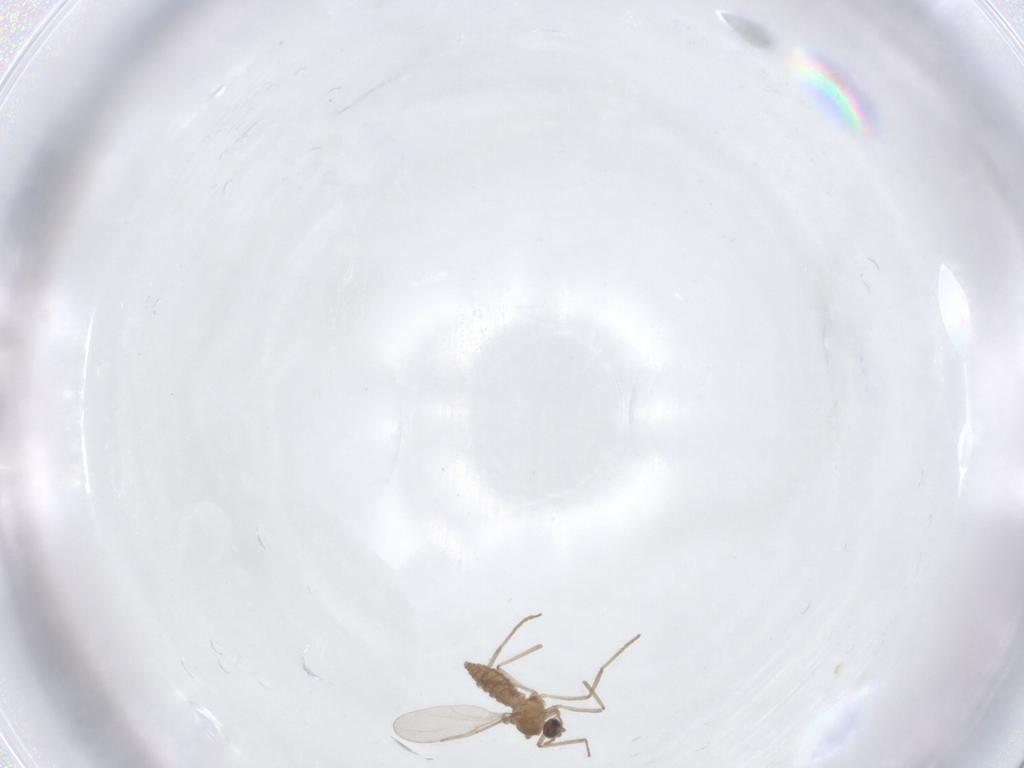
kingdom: Animalia
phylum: Arthropoda
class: Insecta
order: Diptera
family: Cecidomyiidae
